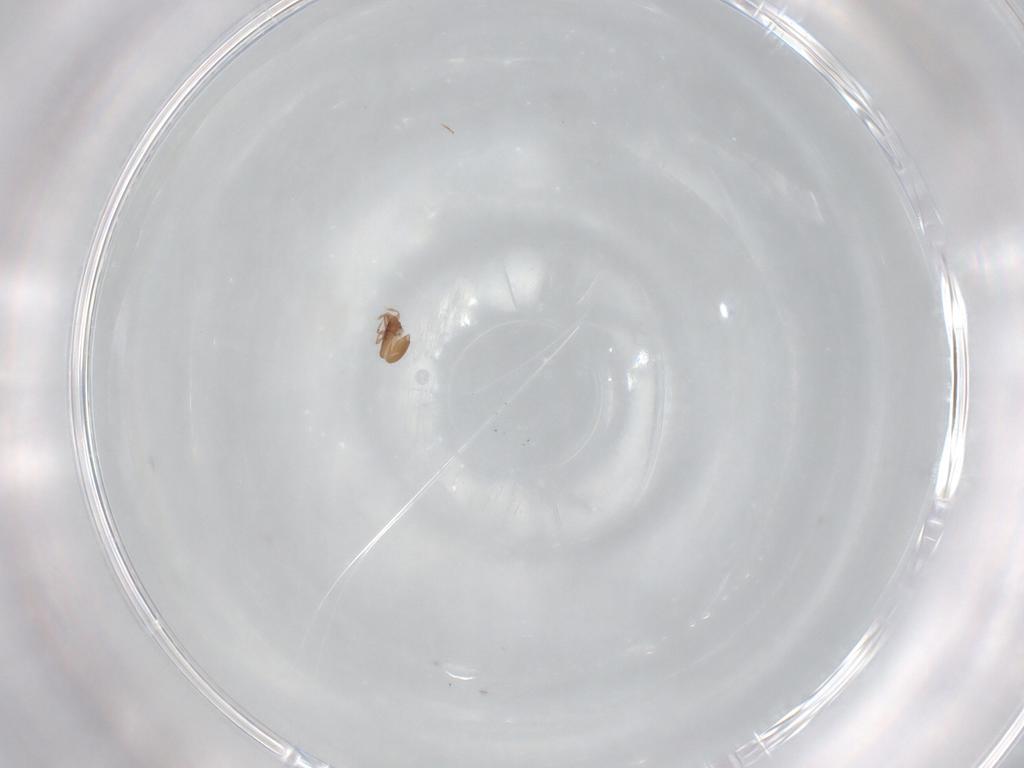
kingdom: Animalia
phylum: Arthropoda
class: Arachnida
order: Sarcoptiformes
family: Oribatulidae
